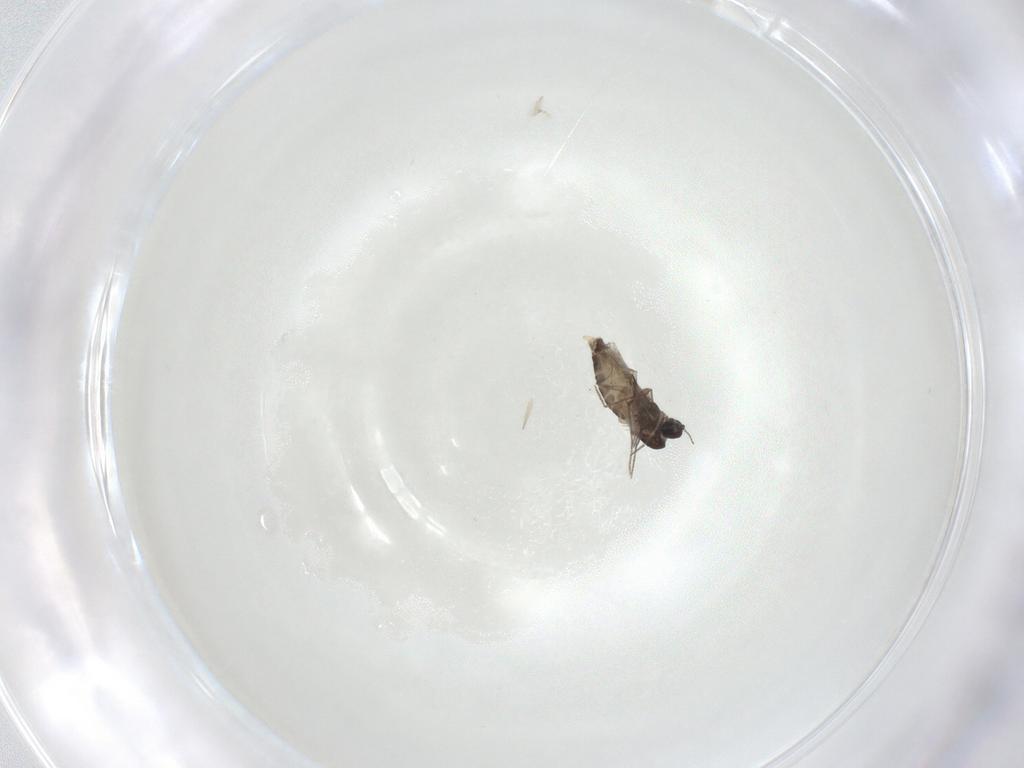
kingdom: Animalia
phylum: Arthropoda
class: Insecta
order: Diptera
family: Chironomidae
